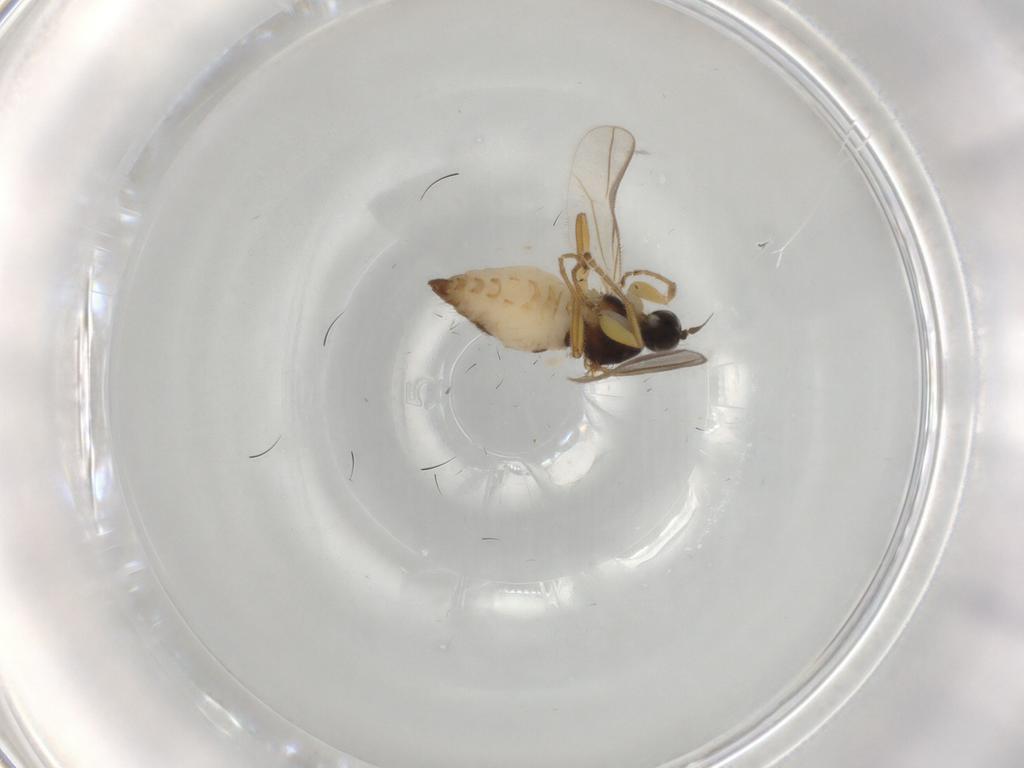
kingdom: Animalia
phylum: Arthropoda
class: Insecta
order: Diptera
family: Hybotidae
